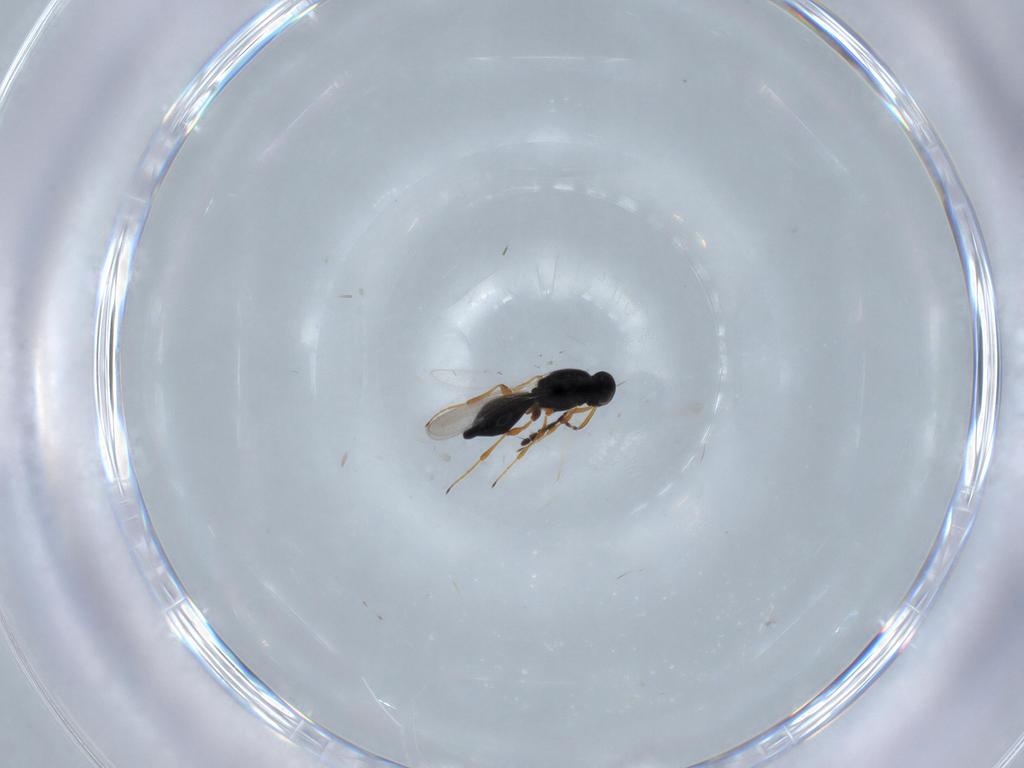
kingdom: Animalia
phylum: Arthropoda
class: Insecta
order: Hymenoptera
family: Platygastridae
